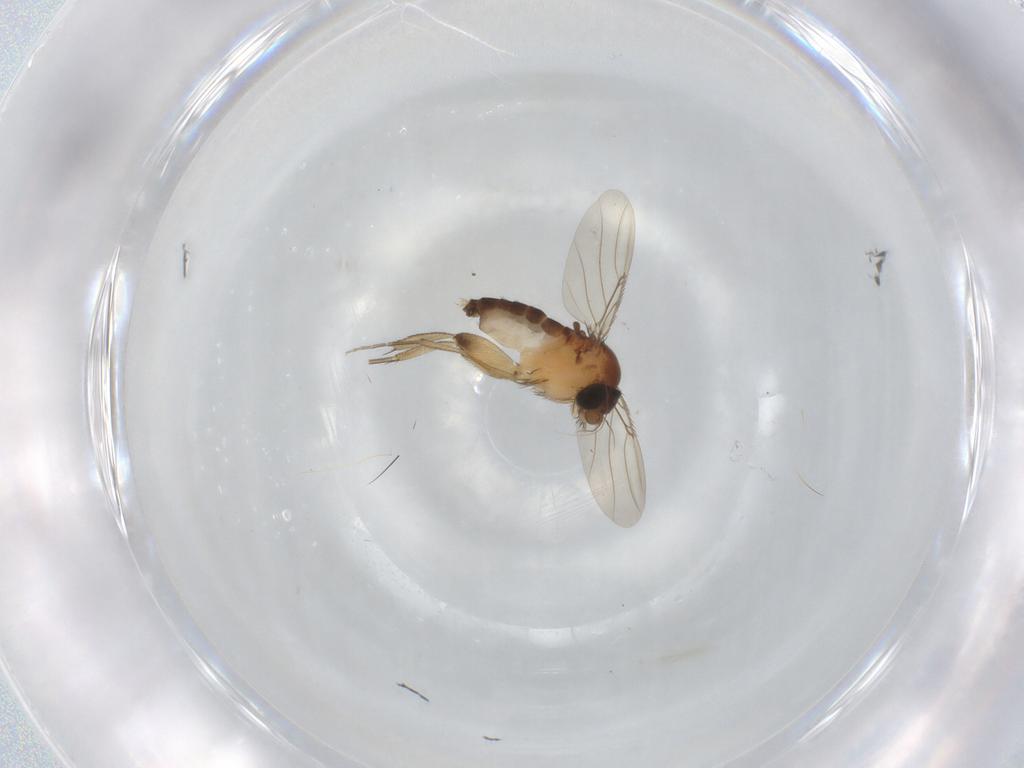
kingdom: Animalia
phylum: Arthropoda
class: Insecta
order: Diptera
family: Phoridae
